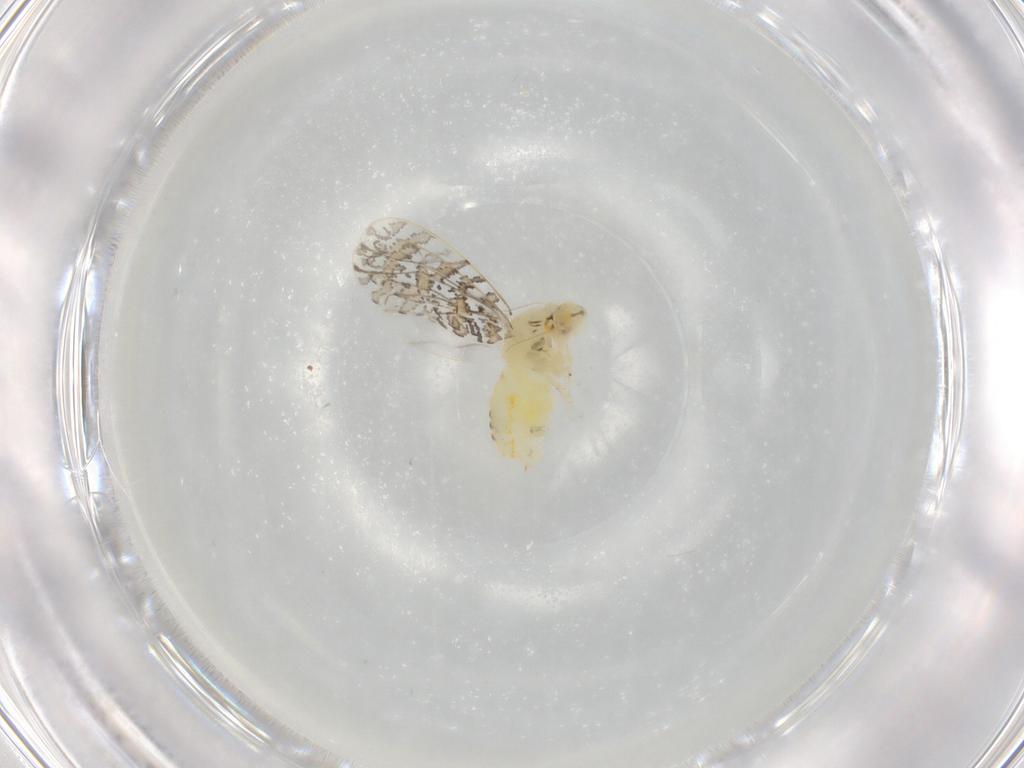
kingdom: Animalia
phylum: Arthropoda
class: Insecta
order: Hemiptera
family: Aleyrodidae
